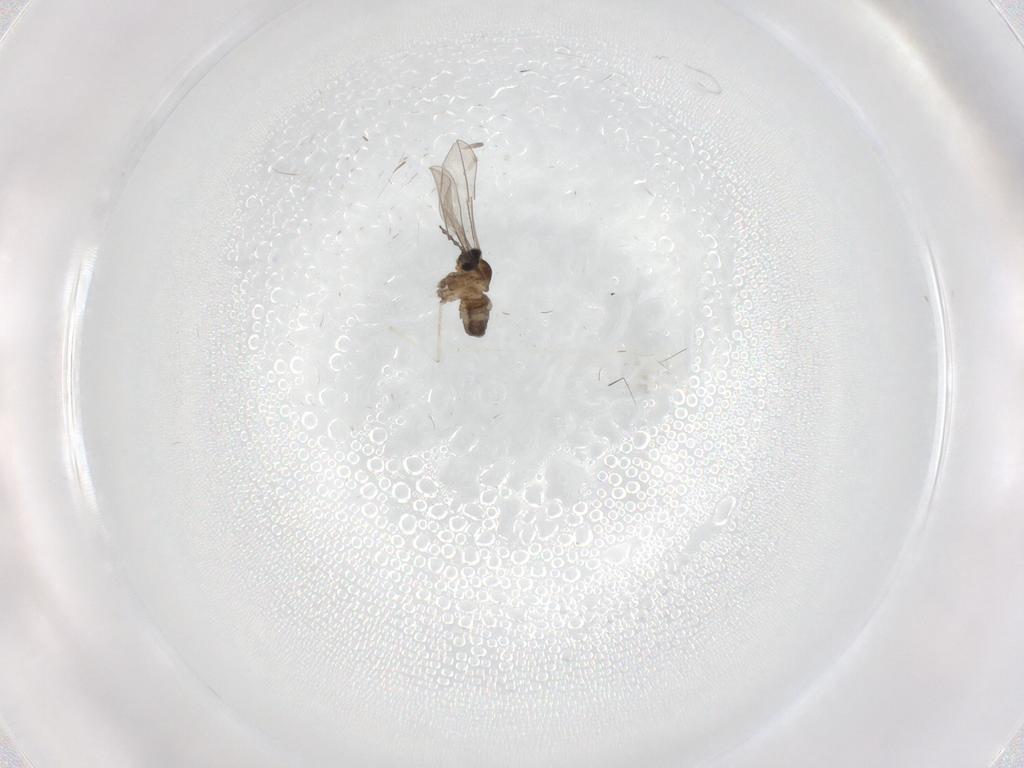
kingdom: Animalia
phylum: Arthropoda
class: Insecta
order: Diptera
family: Cecidomyiidae
